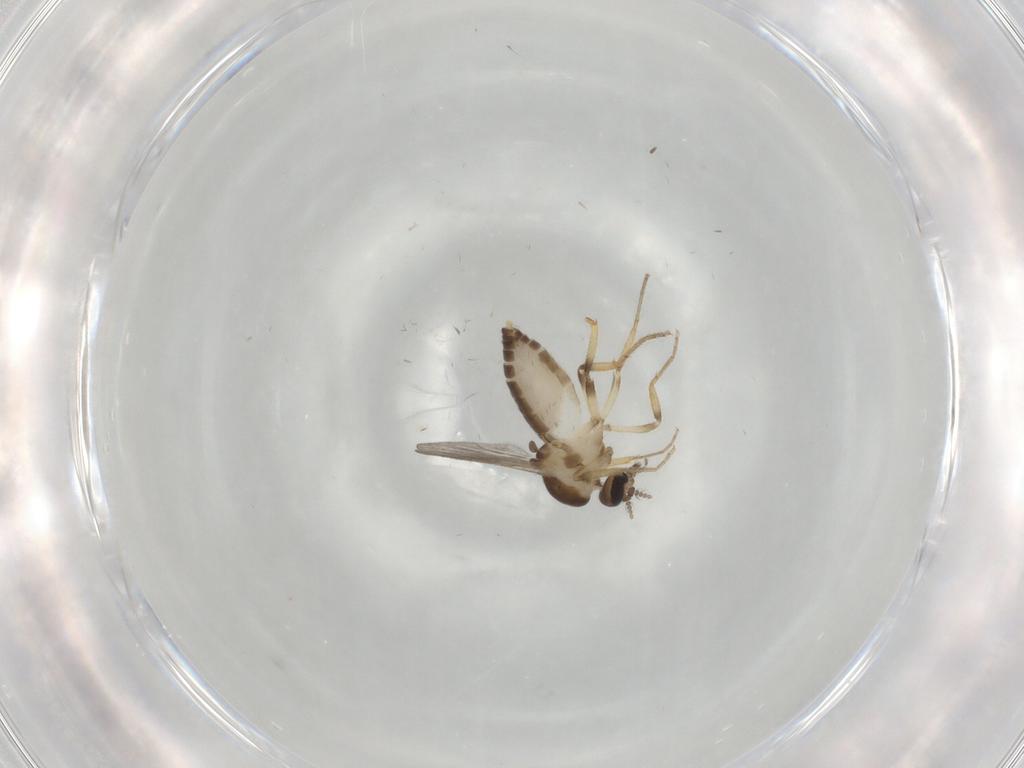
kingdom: Animalia
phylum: Arthropoda
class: Insecta
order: Diptera
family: Ceratopogonidae
